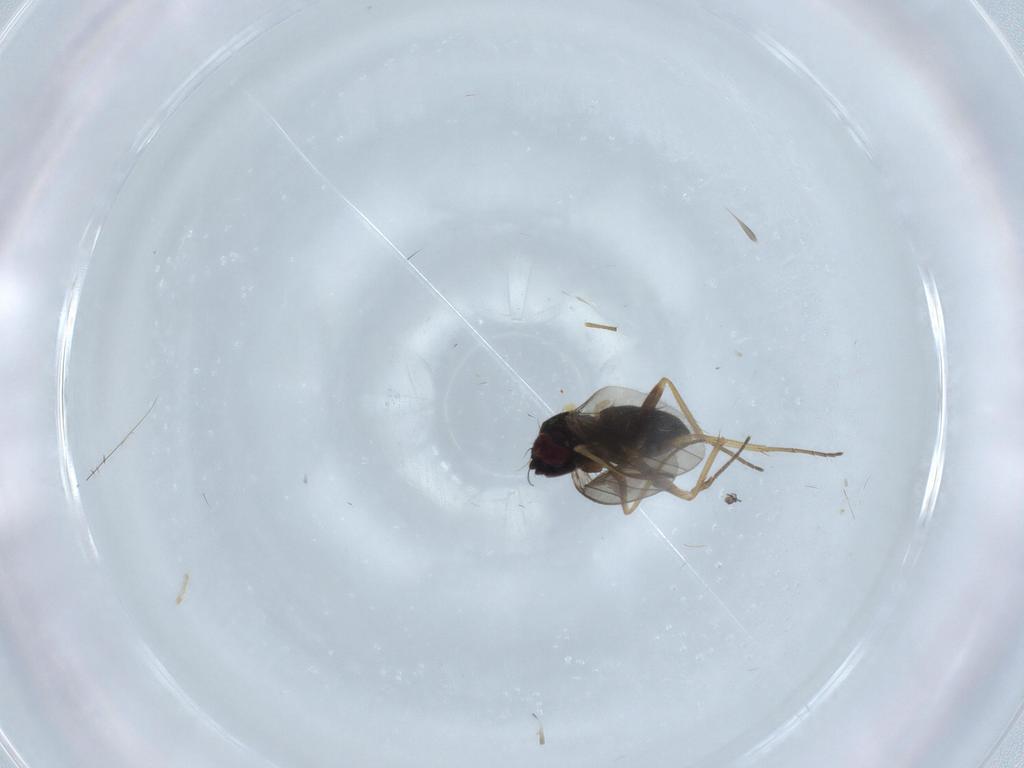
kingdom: Animalia
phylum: Arthropoda
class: Insecta
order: Diptera
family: Dolichopodidae
